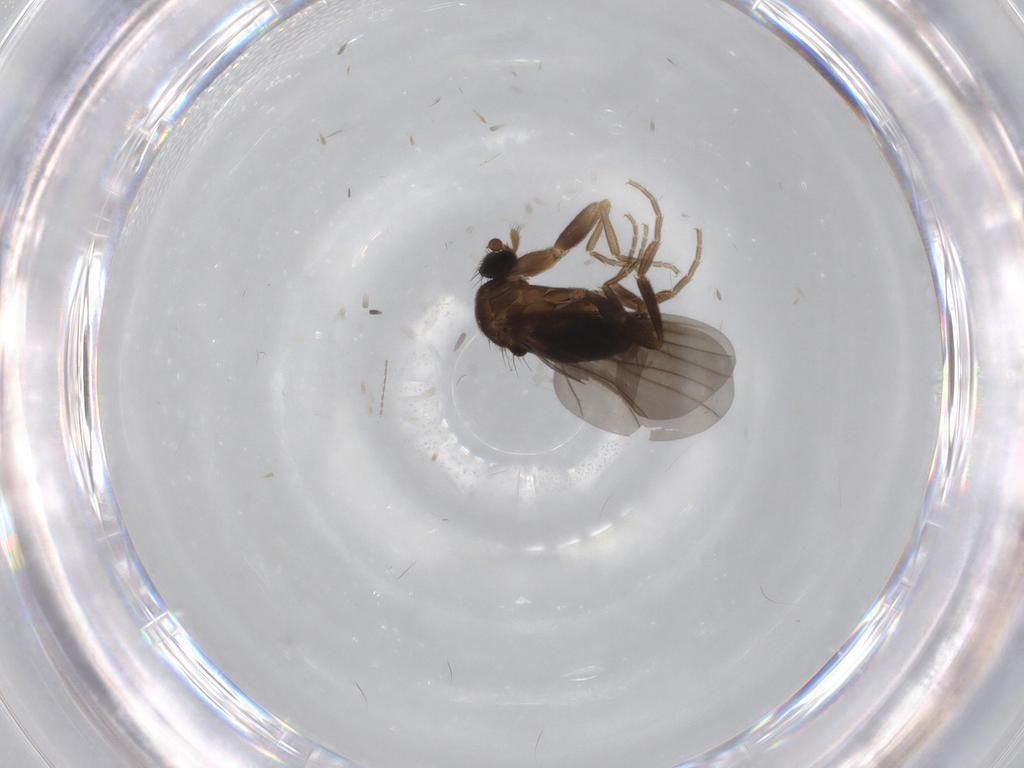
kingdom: Animalia
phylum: Arthropoda
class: Insecta
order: Diptera
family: Phoridae
